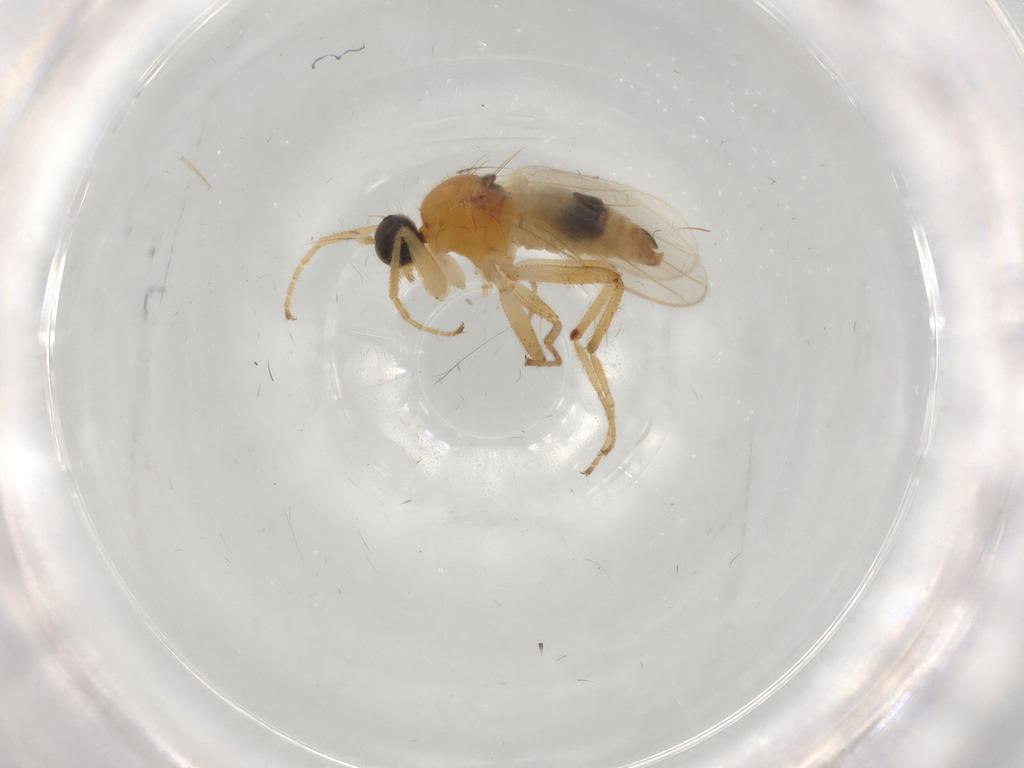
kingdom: Animalia
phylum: Arthropoda
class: Insecta
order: Diptera
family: Hybotidae
